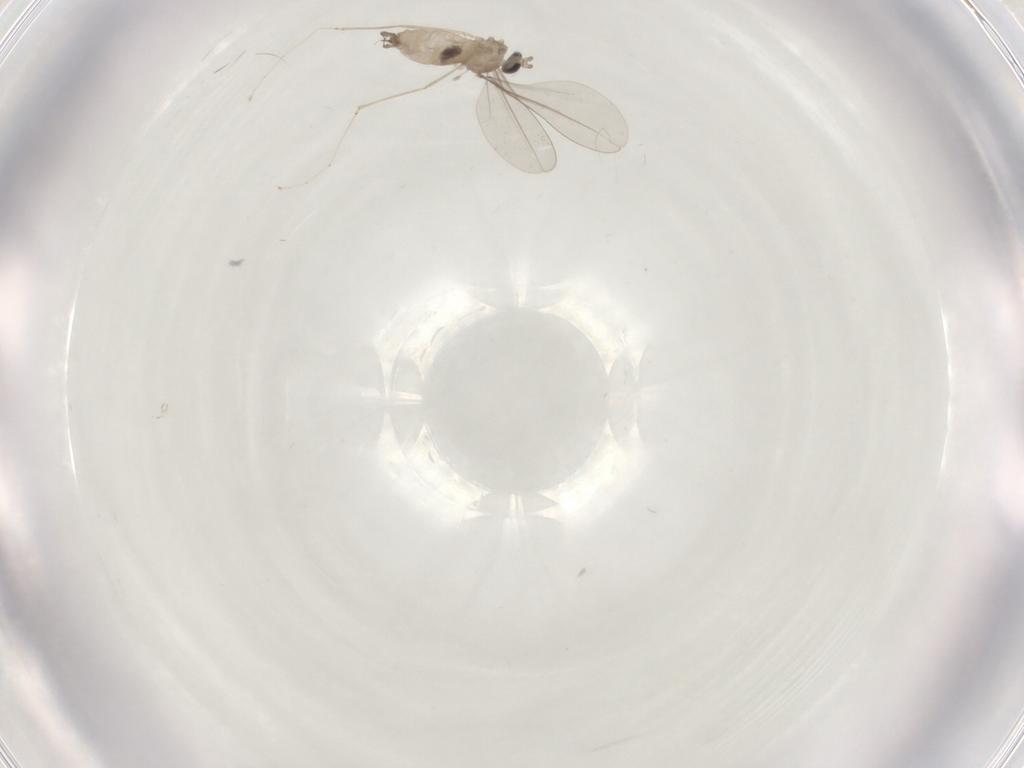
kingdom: Animalia
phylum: Arthropoda
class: Insecta
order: Diptera
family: Cecidomyiidae
